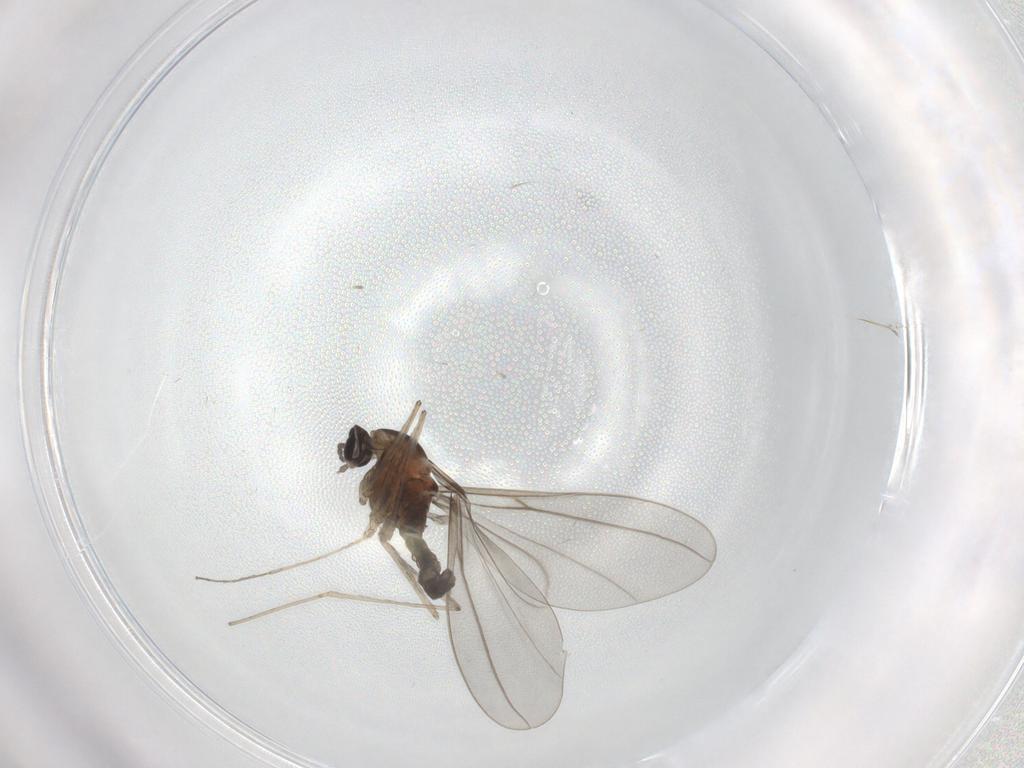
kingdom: Animalia
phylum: Arthropoda
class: Insecta
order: Diptera
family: Cecidomyiidae
